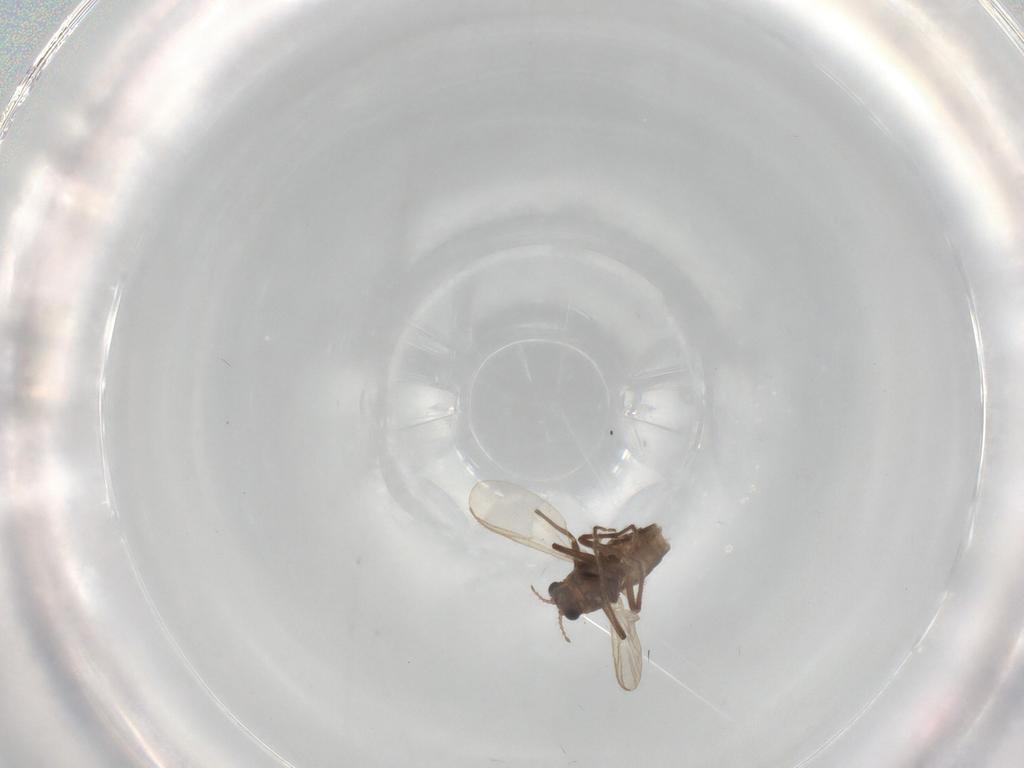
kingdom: Animalia
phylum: Arthropoda
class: Insecta
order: Diptera
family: Chironomidae
